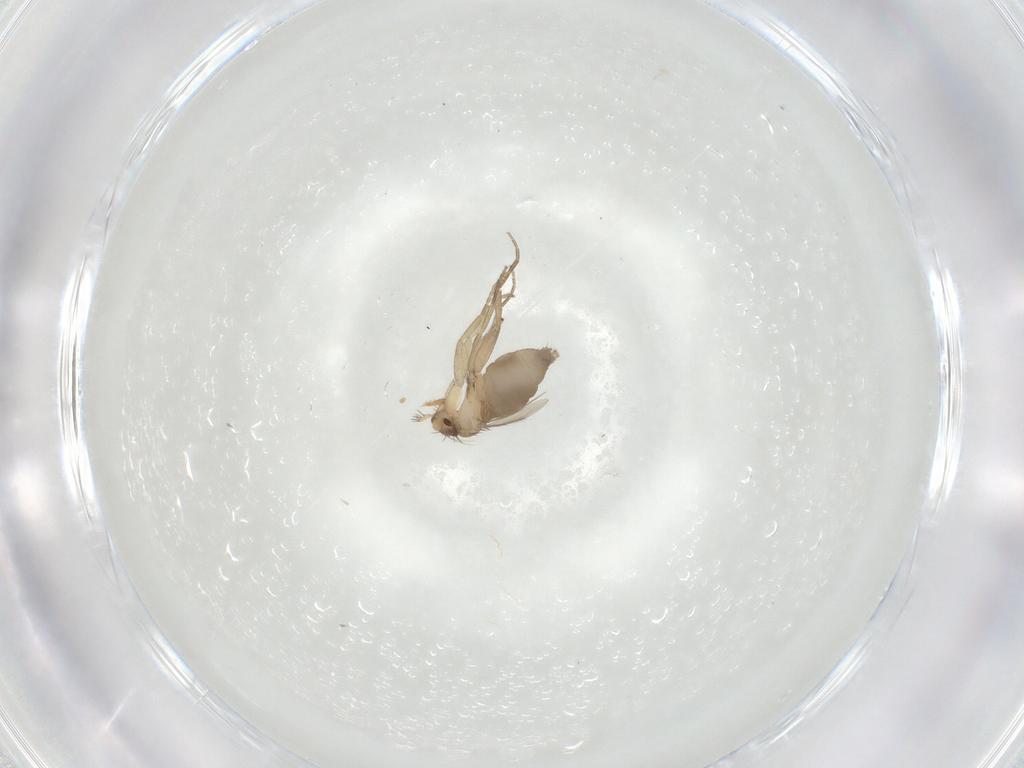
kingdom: Animalia
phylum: Arthropoda
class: Insecta
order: Diptera
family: Phoridae
